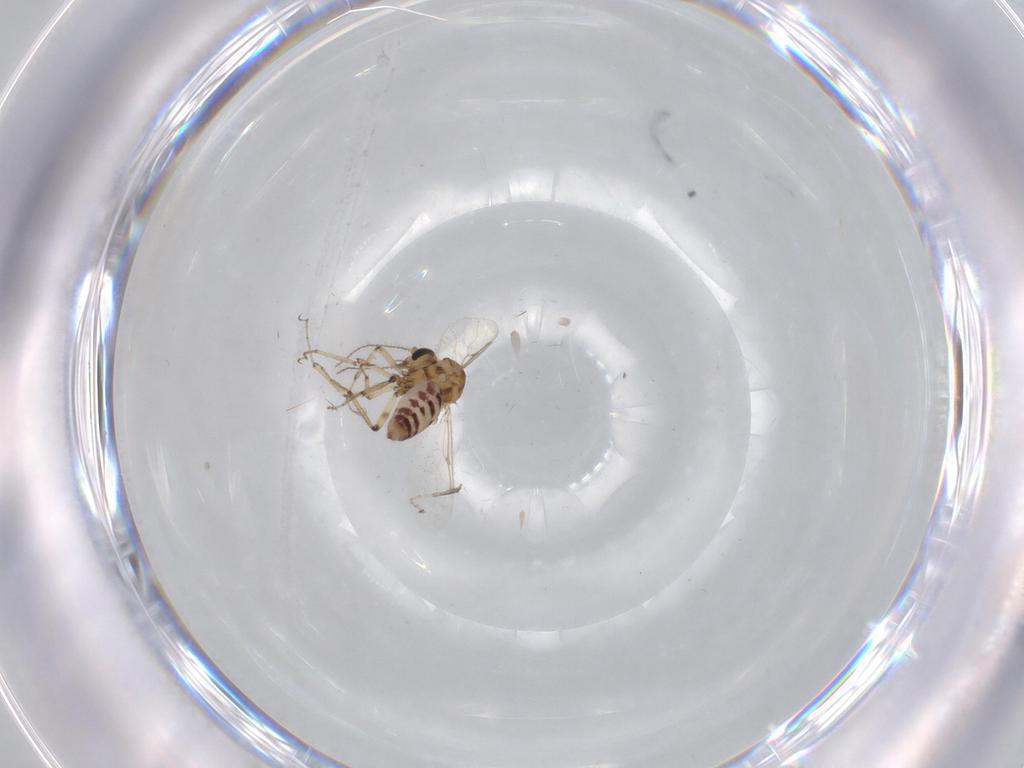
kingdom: Animalia
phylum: Arthropoda
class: Insecta
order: Diptera
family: Ceratopogonidae
